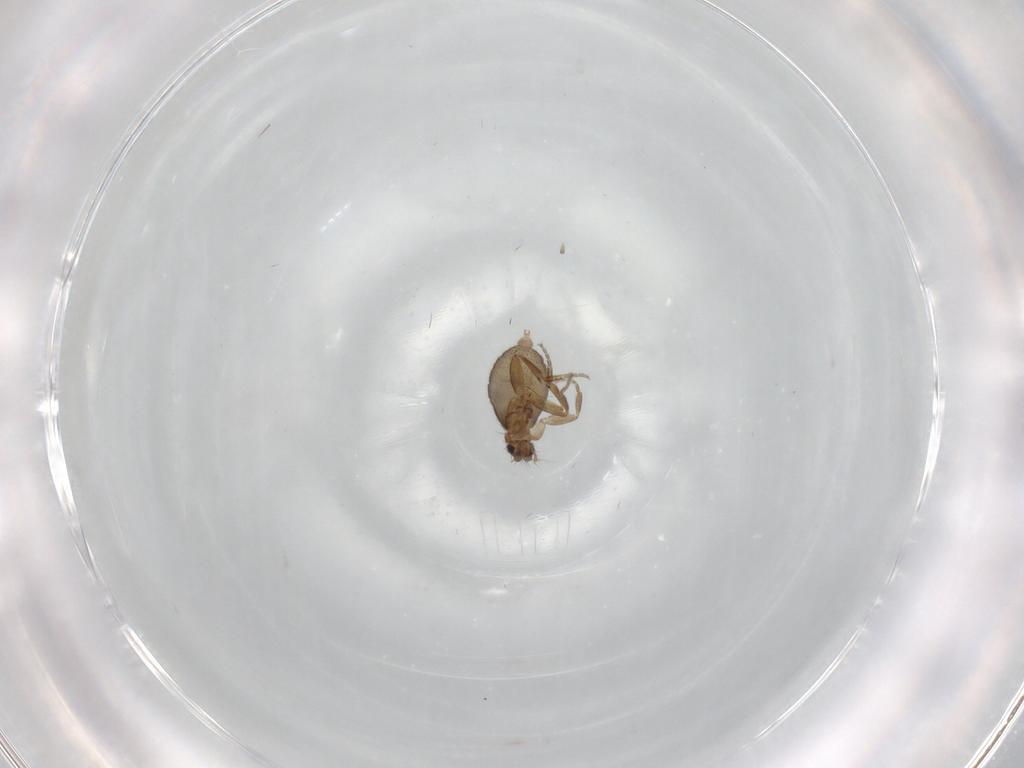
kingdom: Animalia
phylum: Arthropoda
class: Insecta
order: Diptera
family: Phoridae
